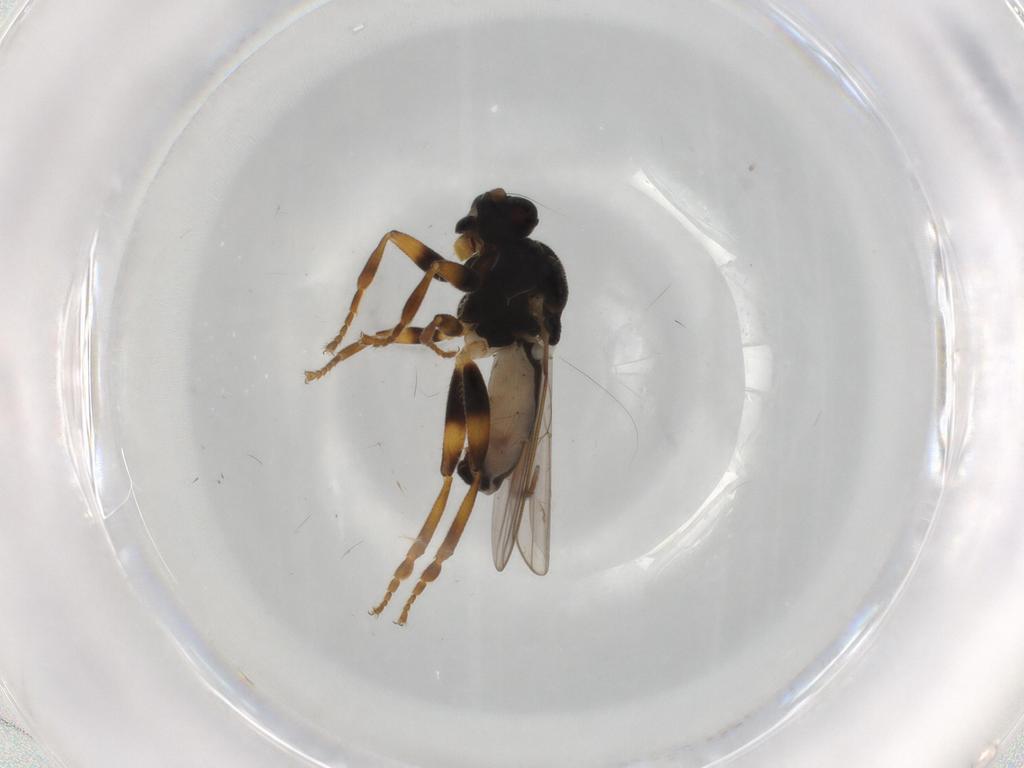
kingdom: Animalia
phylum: Arthropoda
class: Insecta
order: Diptera
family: Sphaeroceridae
